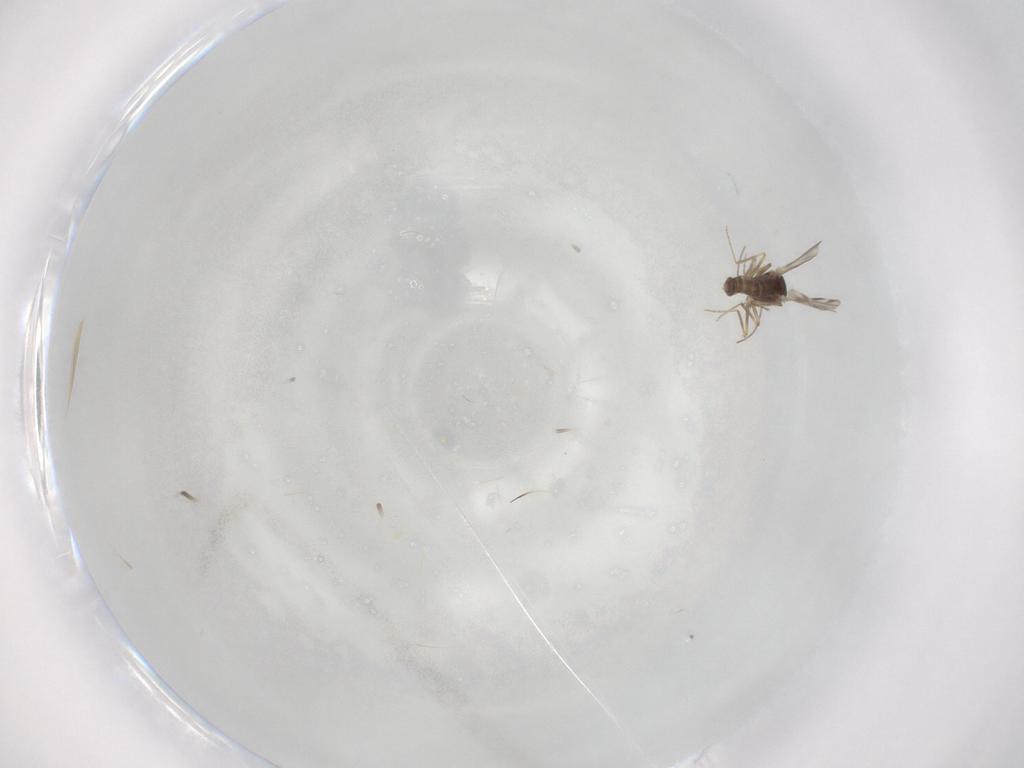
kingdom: Animalia
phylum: Arthropoda
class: Insecta
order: Diptera
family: Ceratopogonidae
